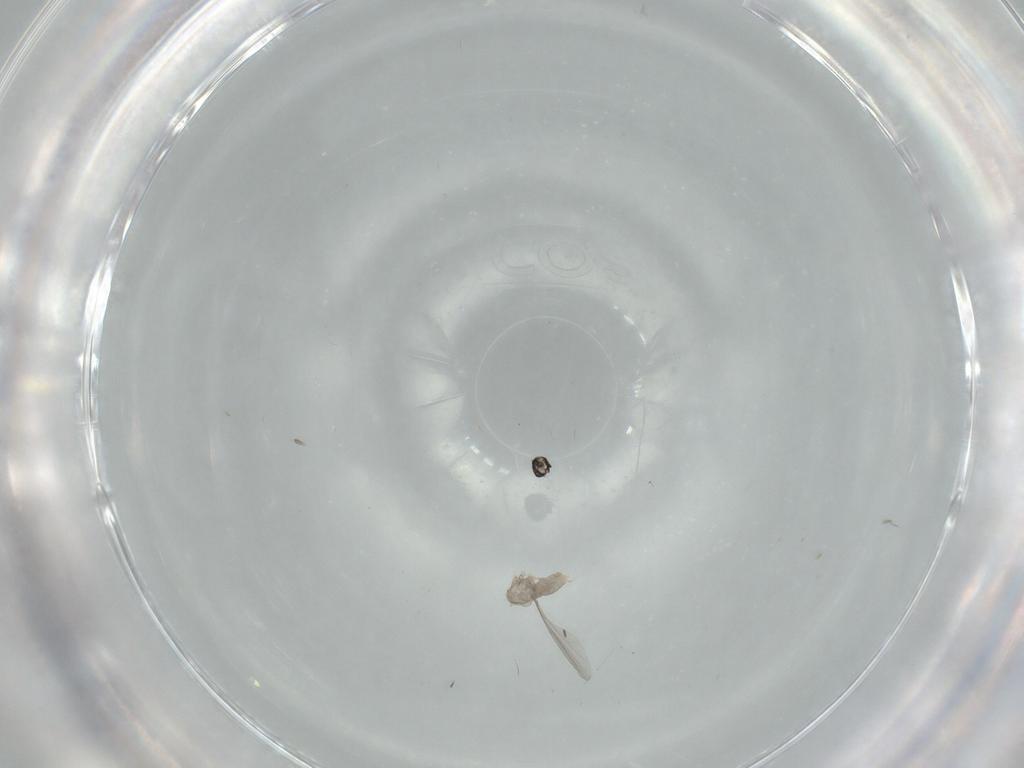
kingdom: Animalia
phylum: Arthropoda
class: Insecta
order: Diptera
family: Cecidomyiidae
